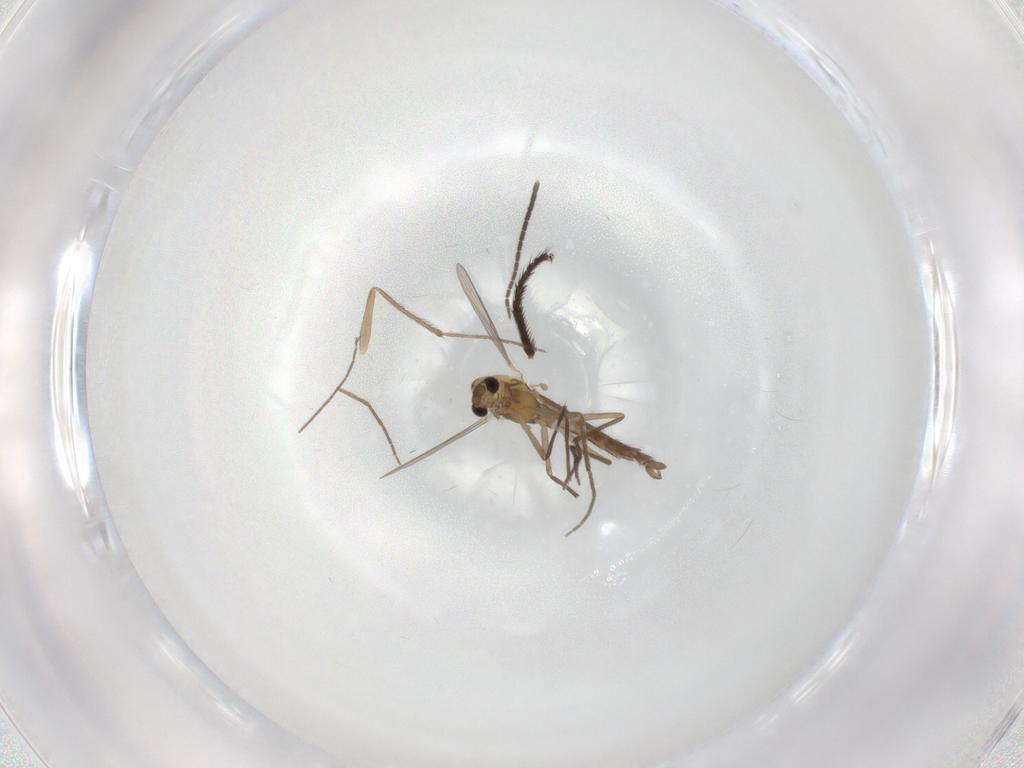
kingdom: Animalia
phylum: Arthropoda
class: Insecta
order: Diptera
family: Chironomidae
